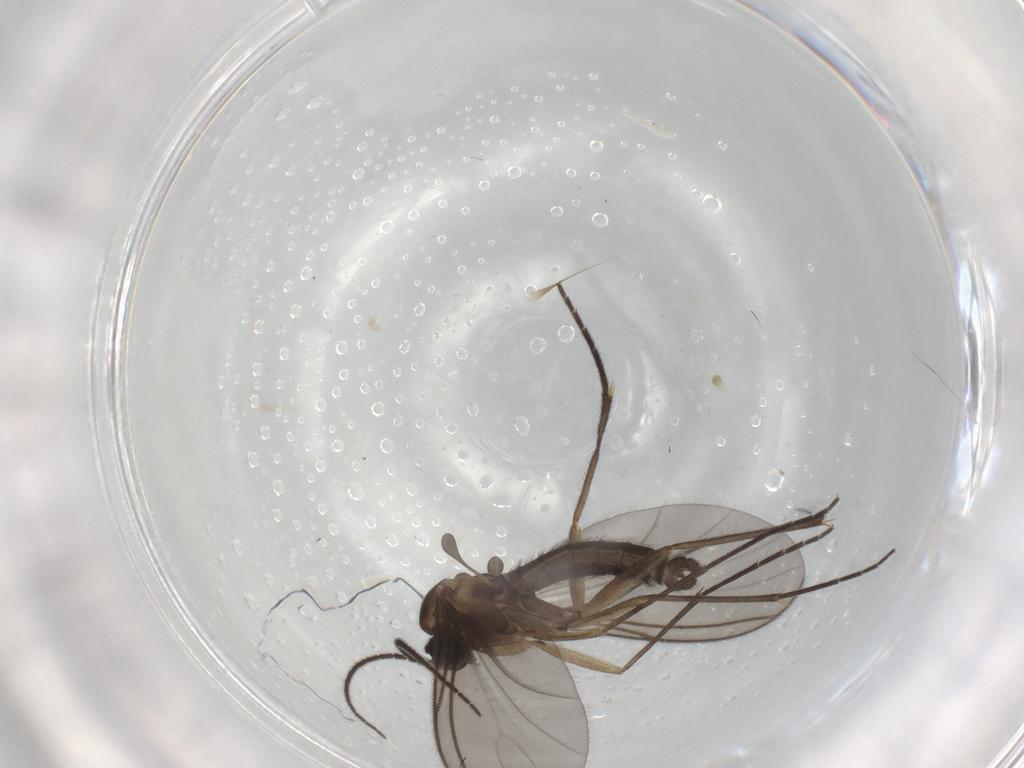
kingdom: Animalia
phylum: Arthropoda
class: Insecta
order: Diptera
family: Sciaridae
